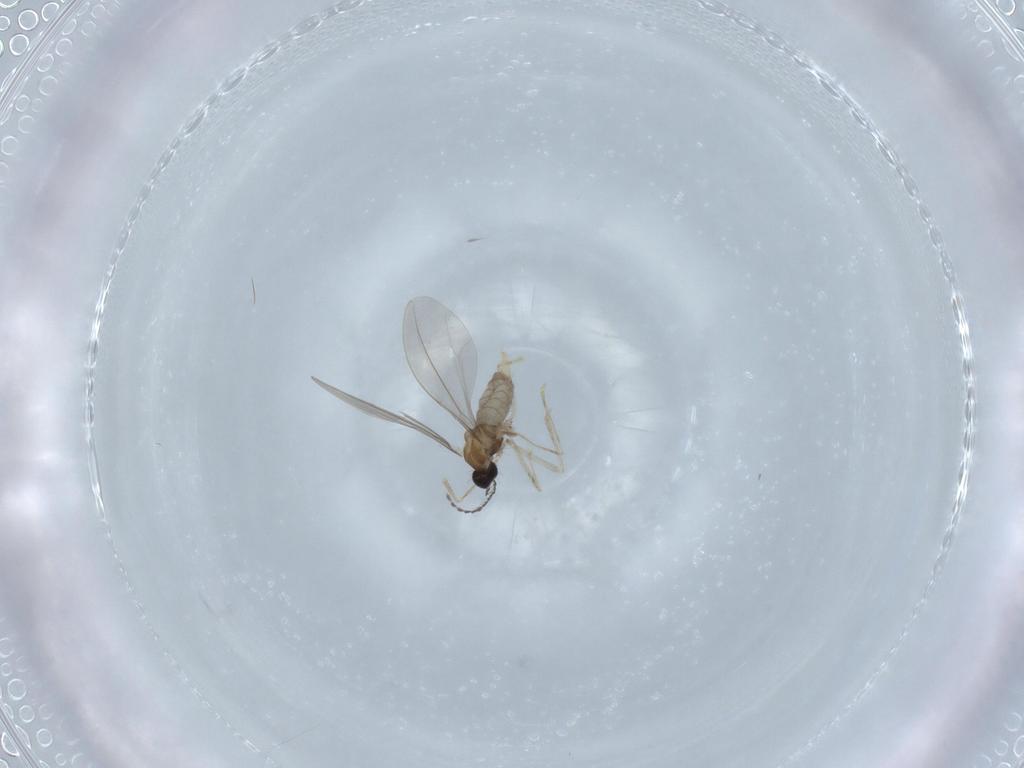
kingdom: Animalia
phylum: Arthropoda
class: Insecta
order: Diptera
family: Cecidomyiidae
